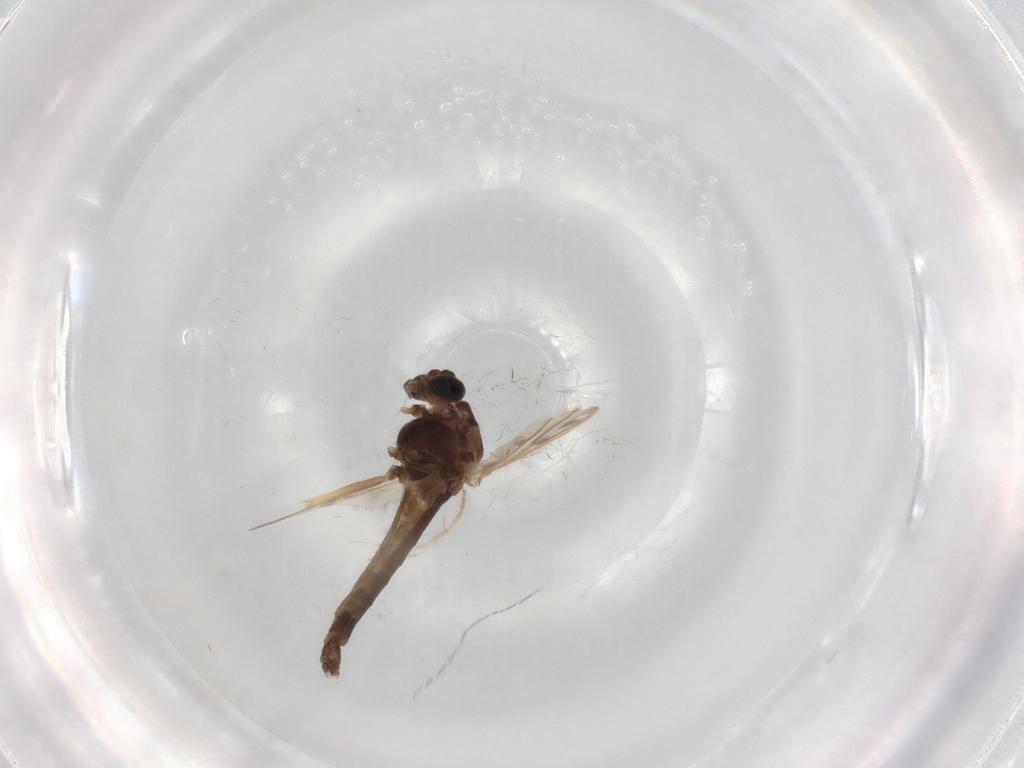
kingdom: Animalia
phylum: Arthropoda
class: Insecta
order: Diptera
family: Chironomidae
